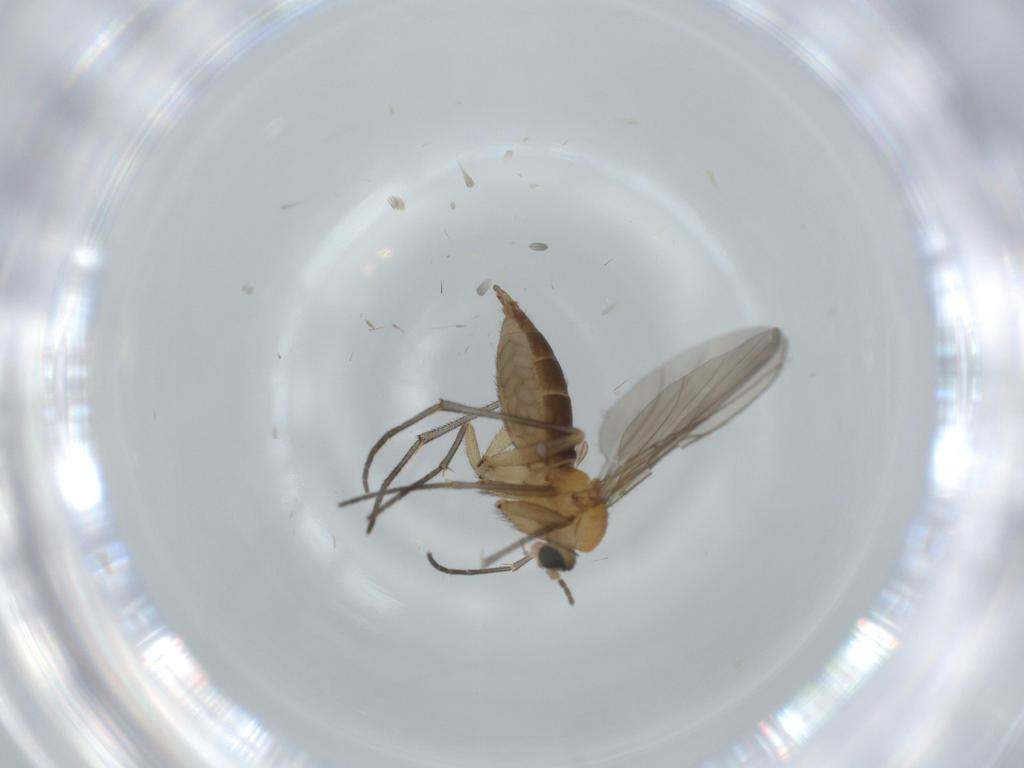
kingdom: Animalia
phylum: Arthropoda
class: Insecta
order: Diptera
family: Sciaridae
